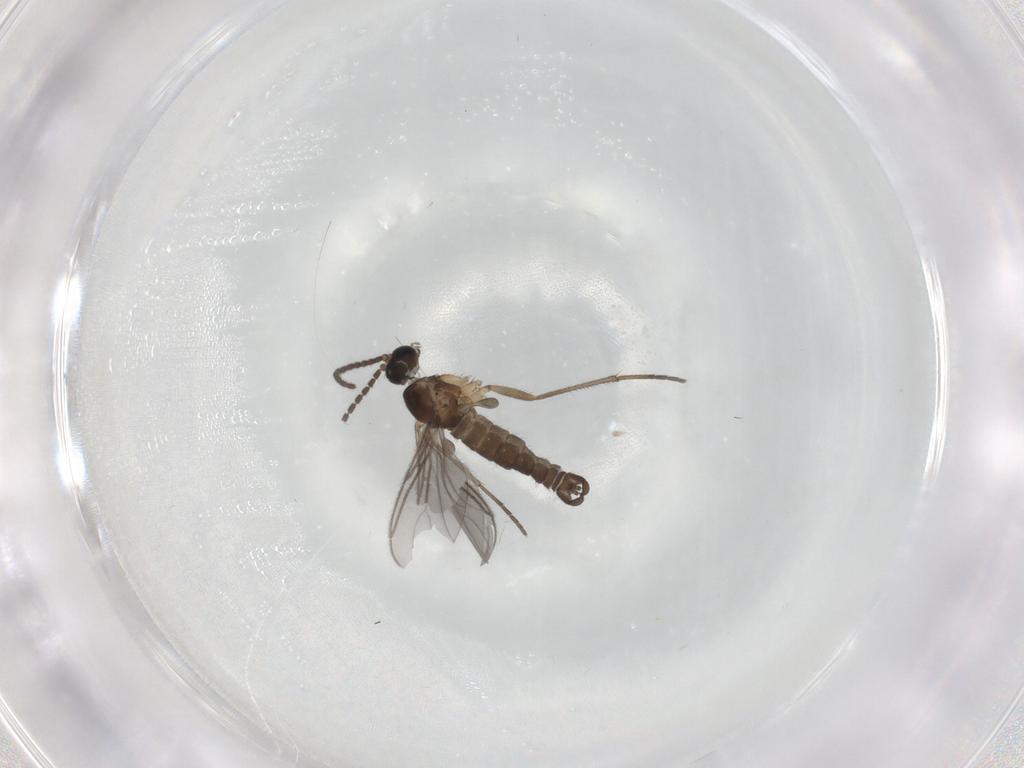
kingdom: Animalia
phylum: Arthropoda
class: Insecta
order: Diptera
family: Sciaridae
